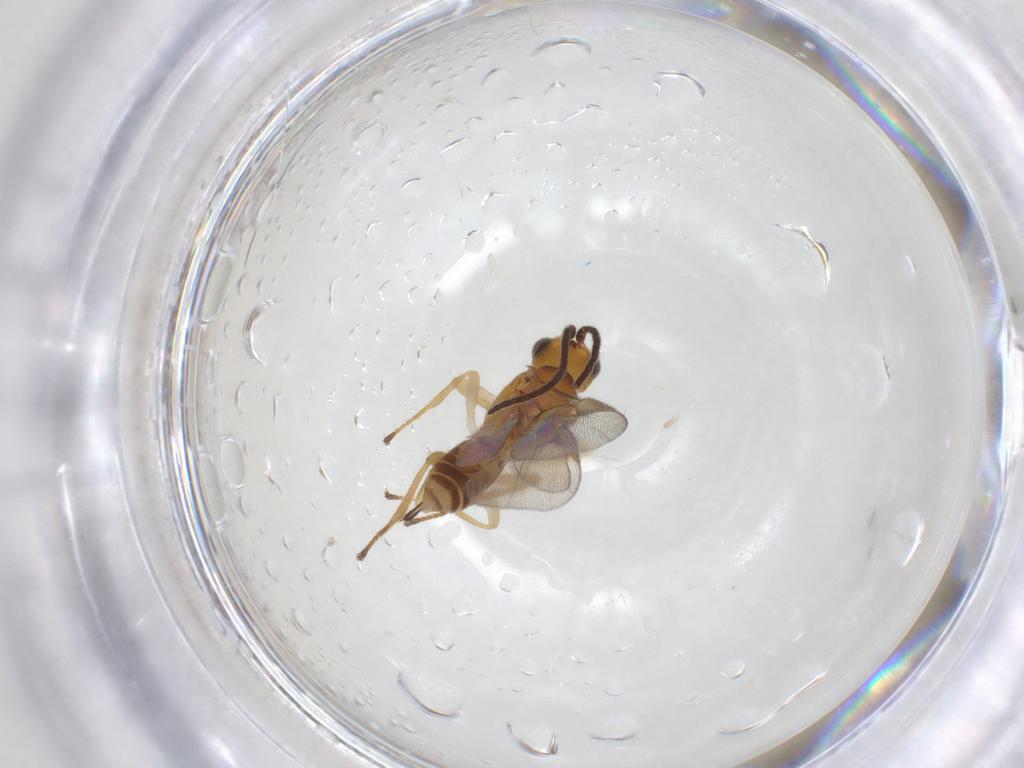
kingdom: Animalia
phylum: Arthropoda
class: Insecta
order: Hymenoptera
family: Braconidae
